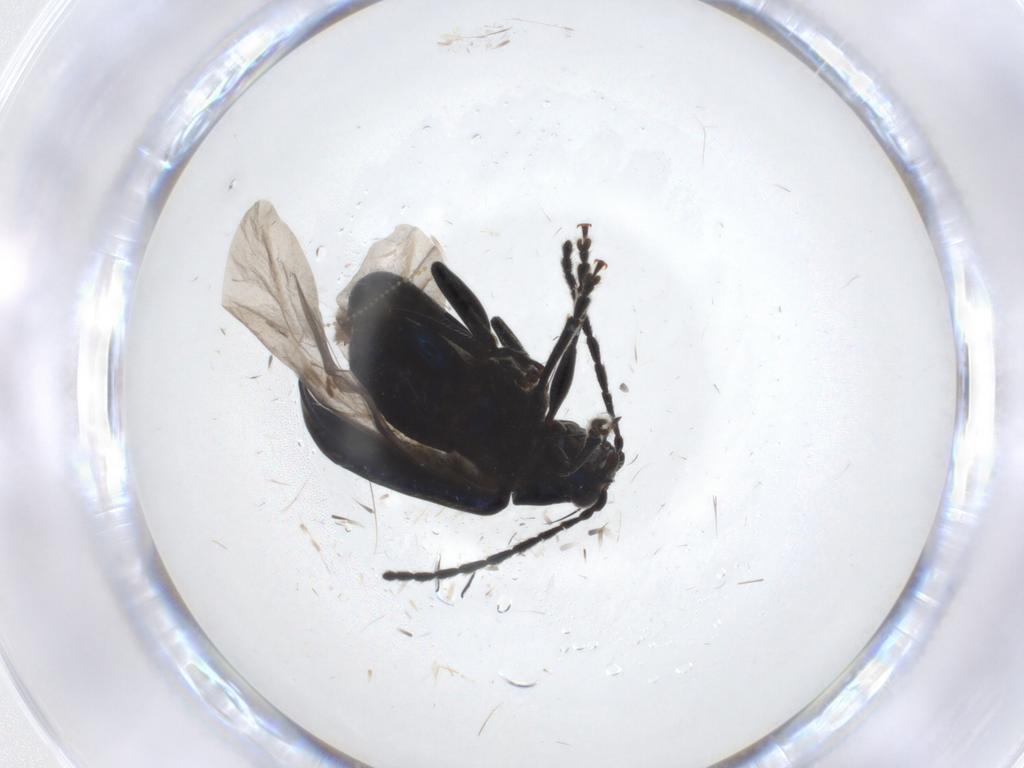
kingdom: Animalia
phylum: Arthropoda
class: Insecta
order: Coleoptera
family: Chrysomelidae
